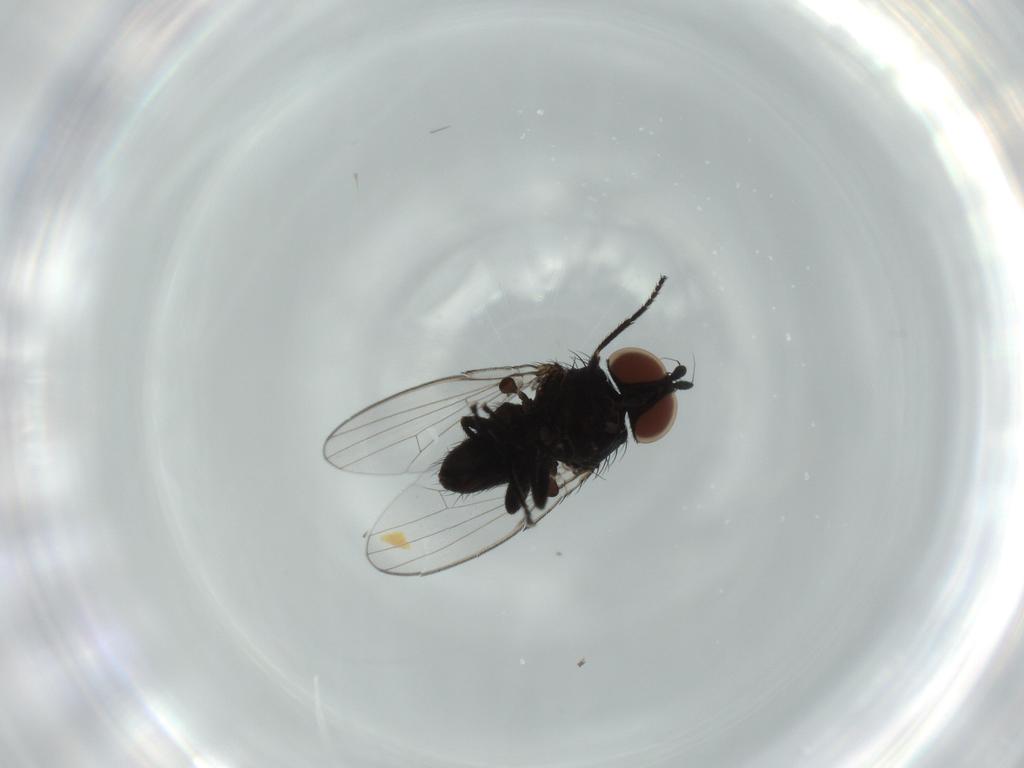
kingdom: Animalia
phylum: Arthropoda
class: Insecta
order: Diptera
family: Milichiidae
